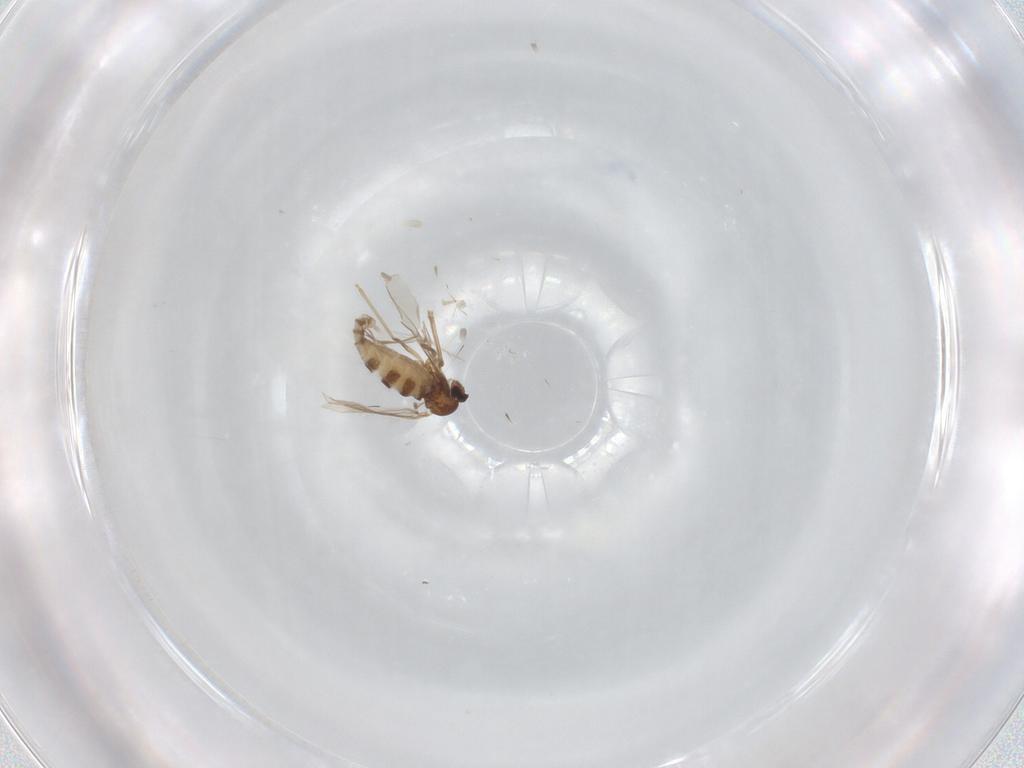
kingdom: Animalia
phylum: Arthropoda
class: Insecta
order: Diptera
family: Cecidomyiidae
